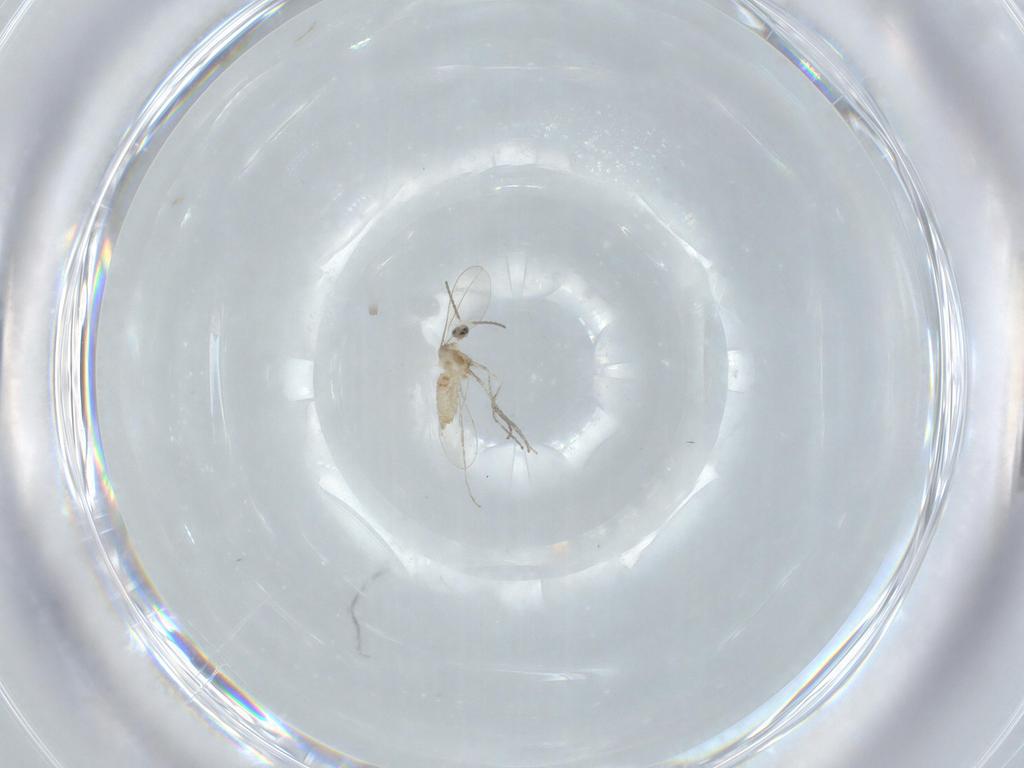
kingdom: Animalia
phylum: Arthropoda
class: Insecta
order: Diptera
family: Cecidomyiidae
